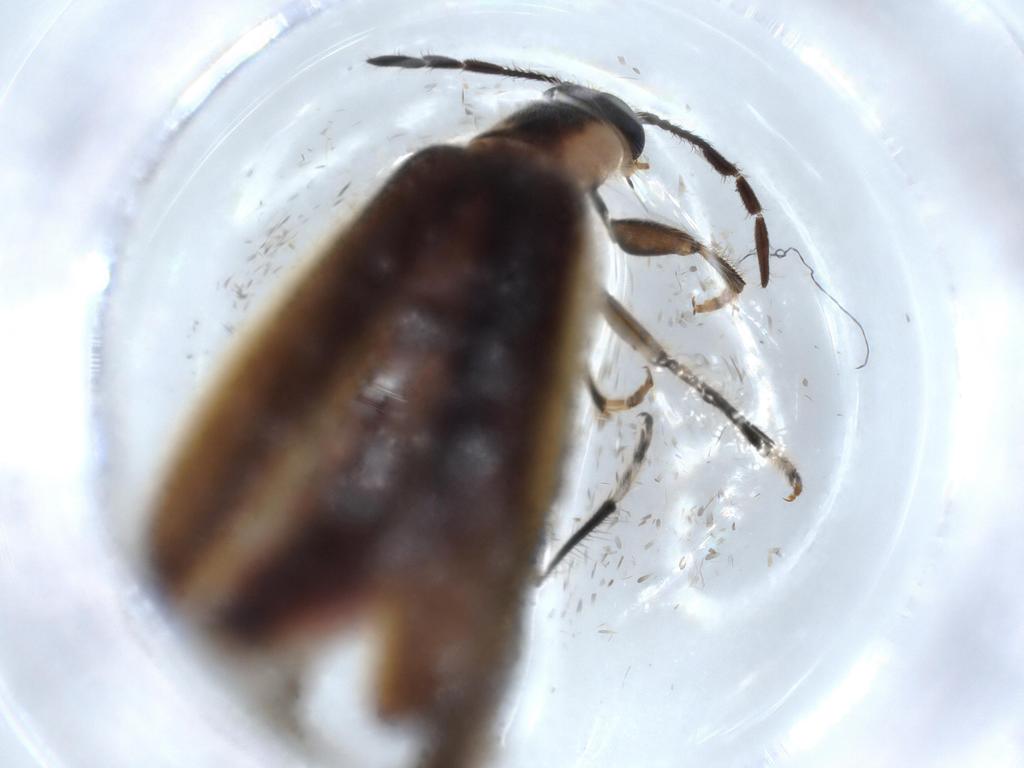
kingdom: Animalia
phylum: Arthropoda
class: Insecta
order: Coleoptera
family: Cleridae
